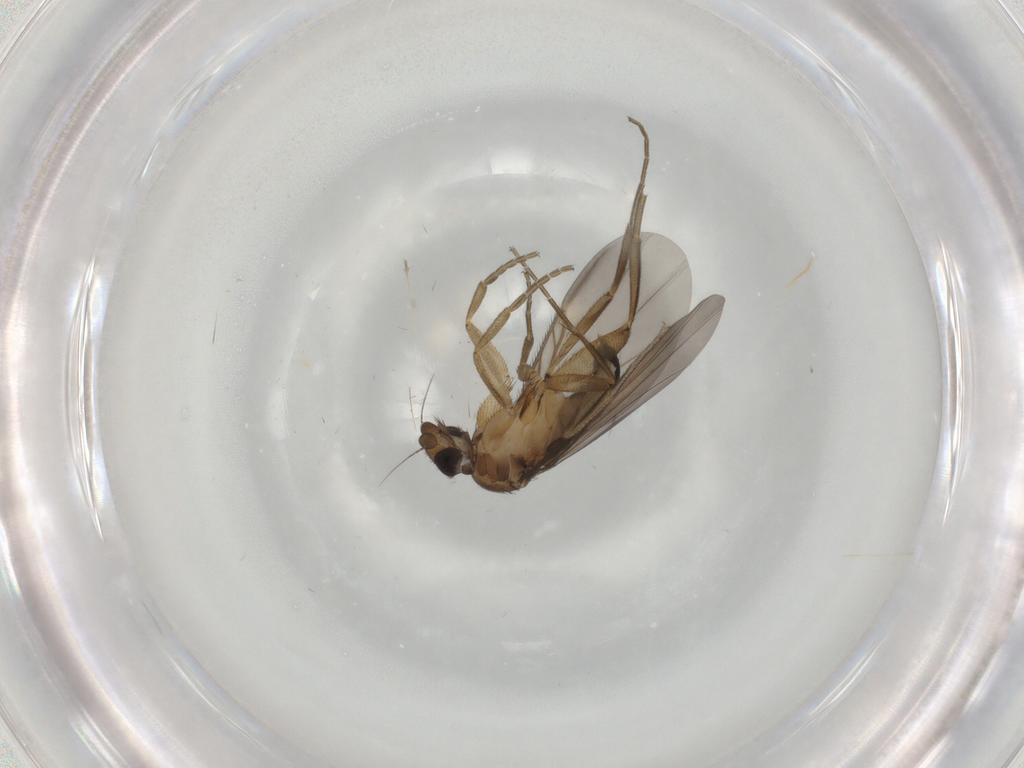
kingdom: Animalia
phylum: Arthropoda
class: Insecta
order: Diptera
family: Phoridae
